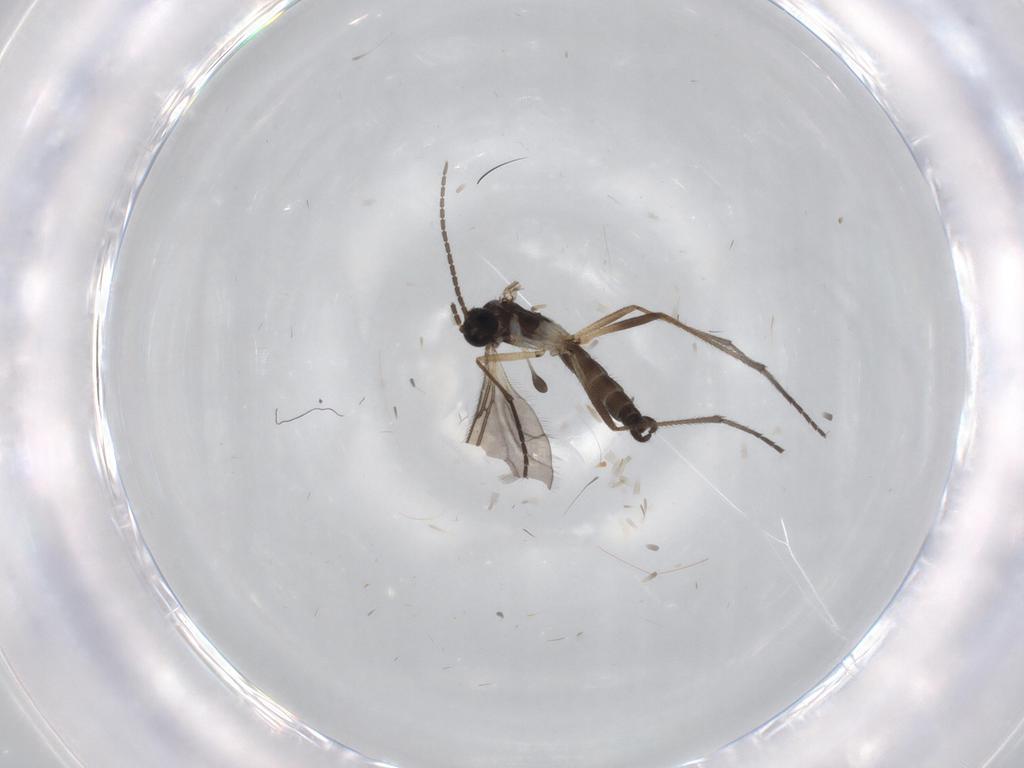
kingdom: Animalia
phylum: Arthropoda
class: Insecta
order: Diptera
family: Sciaridae
